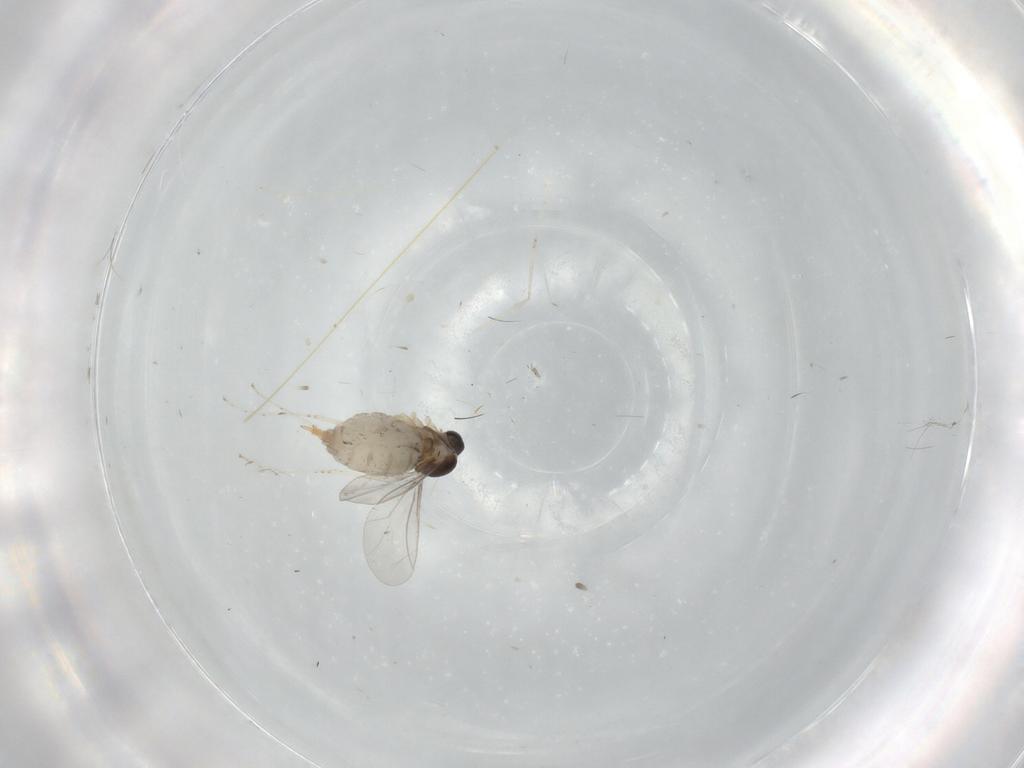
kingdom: Animalia
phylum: Arthropoda
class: Insecta
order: Diptera
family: Cecidomyiidae
